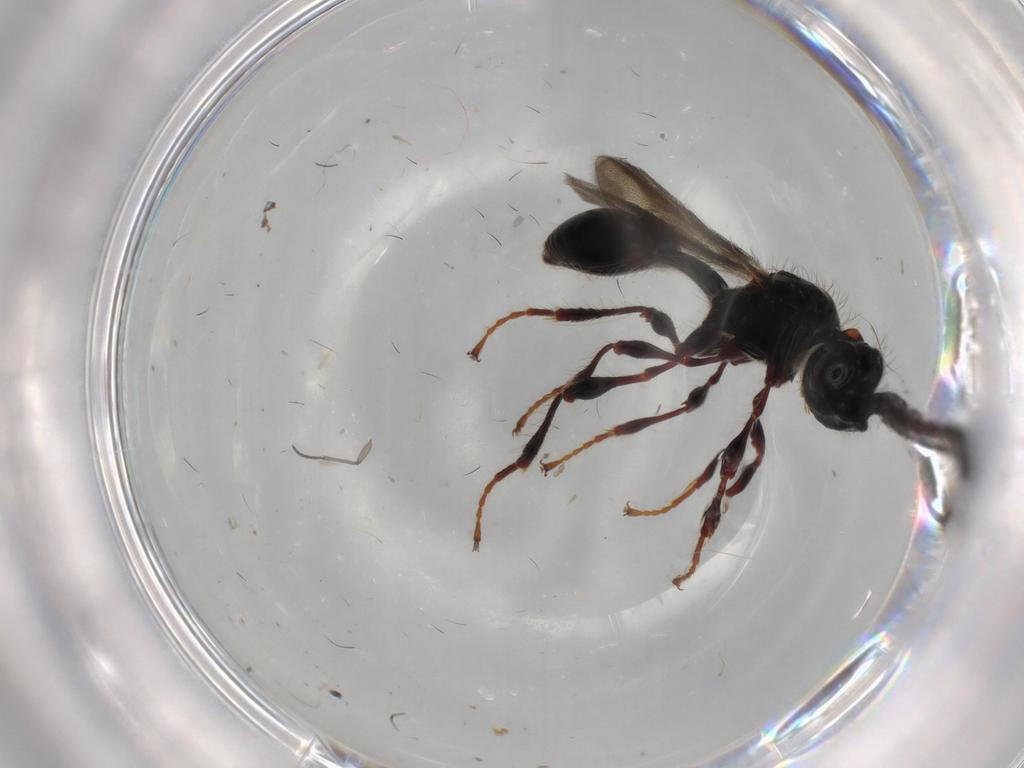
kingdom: Animalia
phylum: Arthropoda
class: Insecta
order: Hymenoptera
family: Diapriidae
